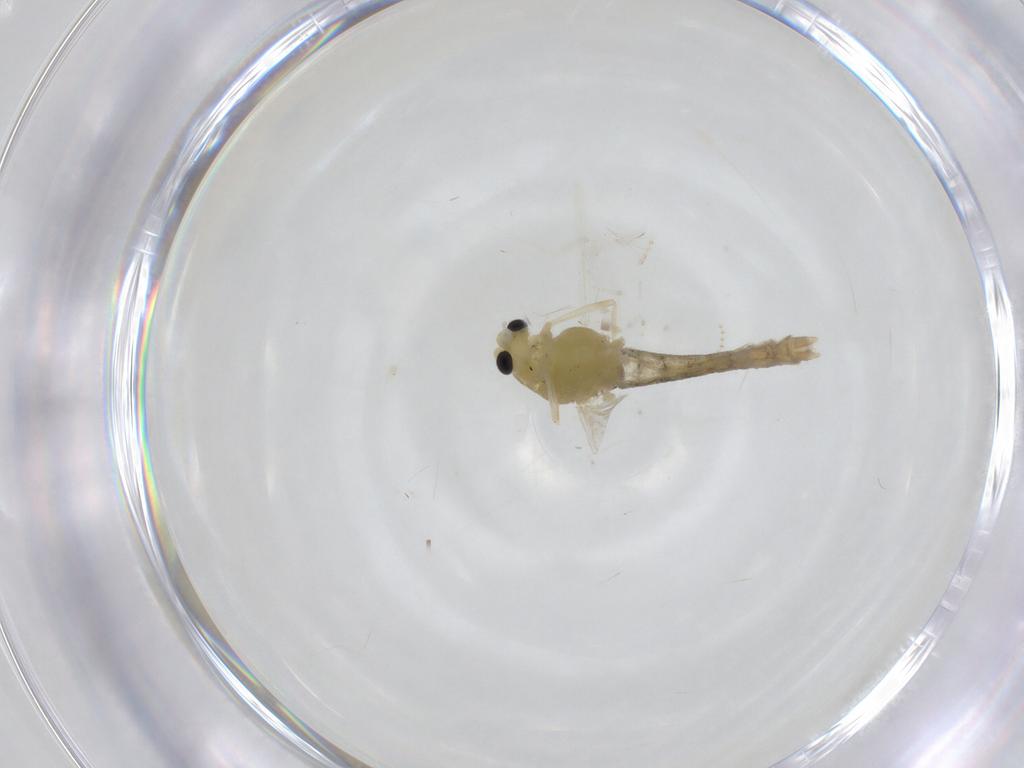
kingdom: Animalia
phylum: Arthropoda
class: Insecta
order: Diptera
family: Chironomidae
